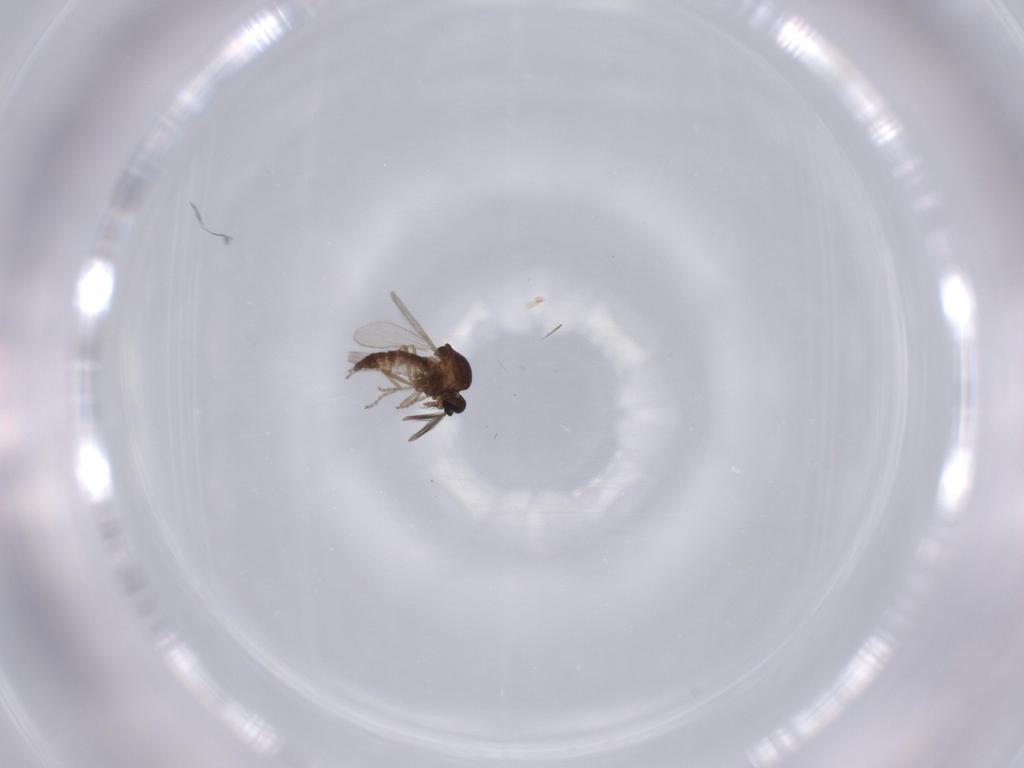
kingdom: Animalia
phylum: Arthropoda
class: Insecta
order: Diptera
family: Ceratopogonidae
